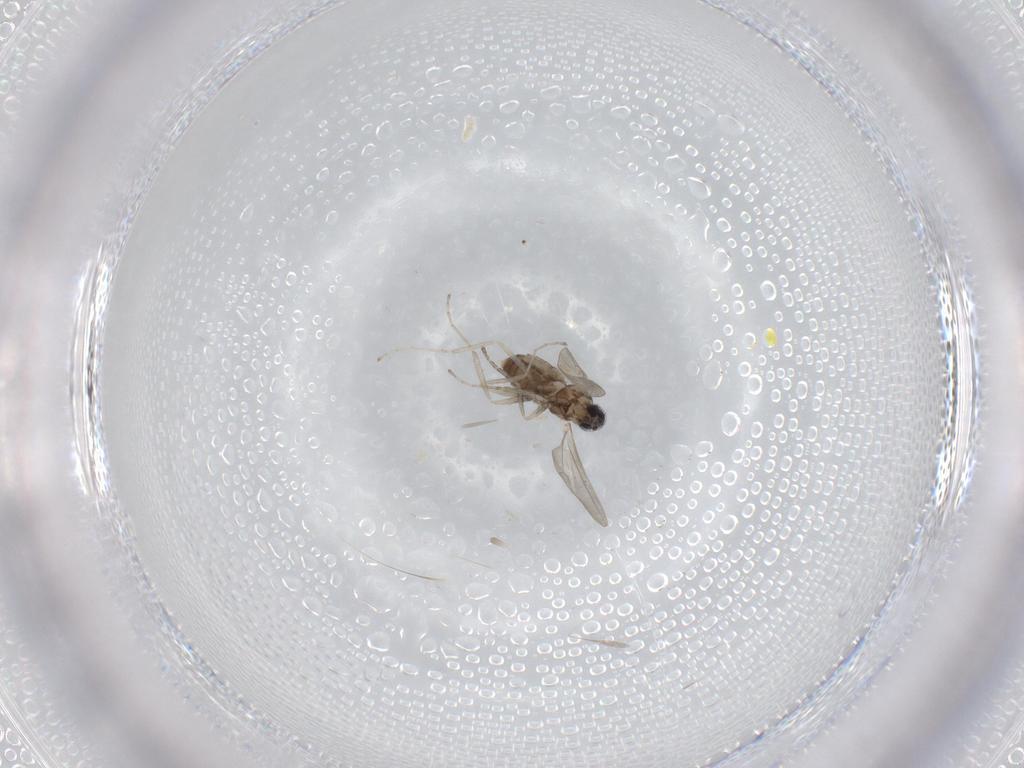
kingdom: Animalia
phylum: Arthropoda
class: Insecta
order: Diptera
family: Cecidomyiidae
